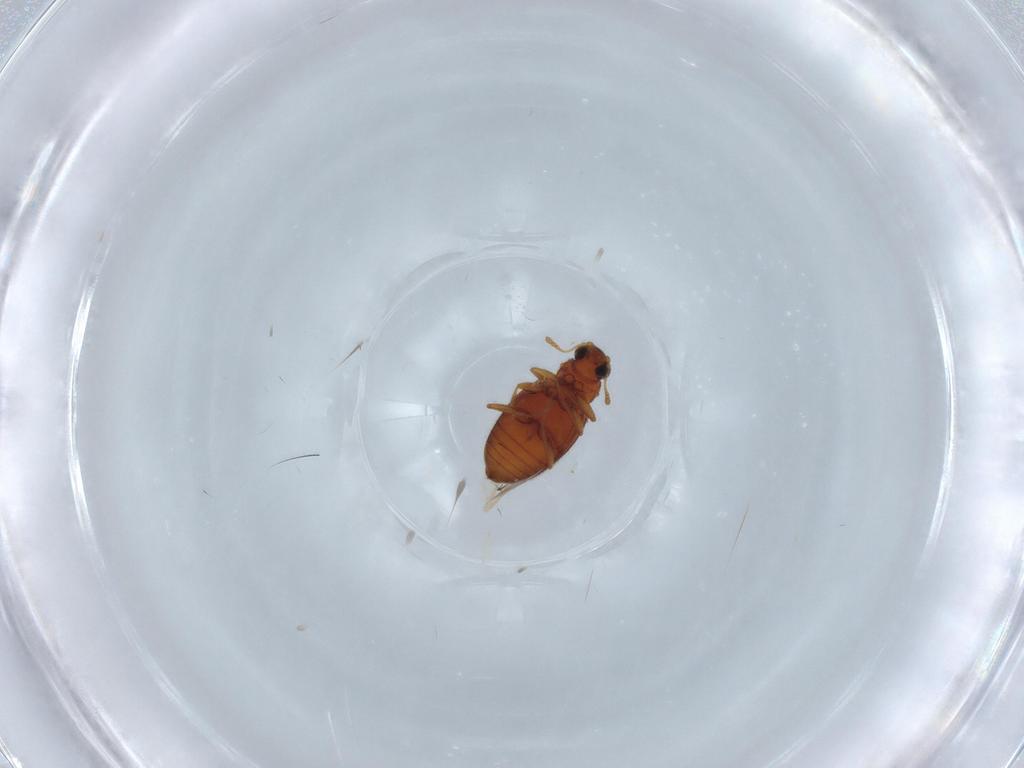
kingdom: Animalia
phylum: Arthropoda
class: Insecta
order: Coleoptera
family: Latridiidae
